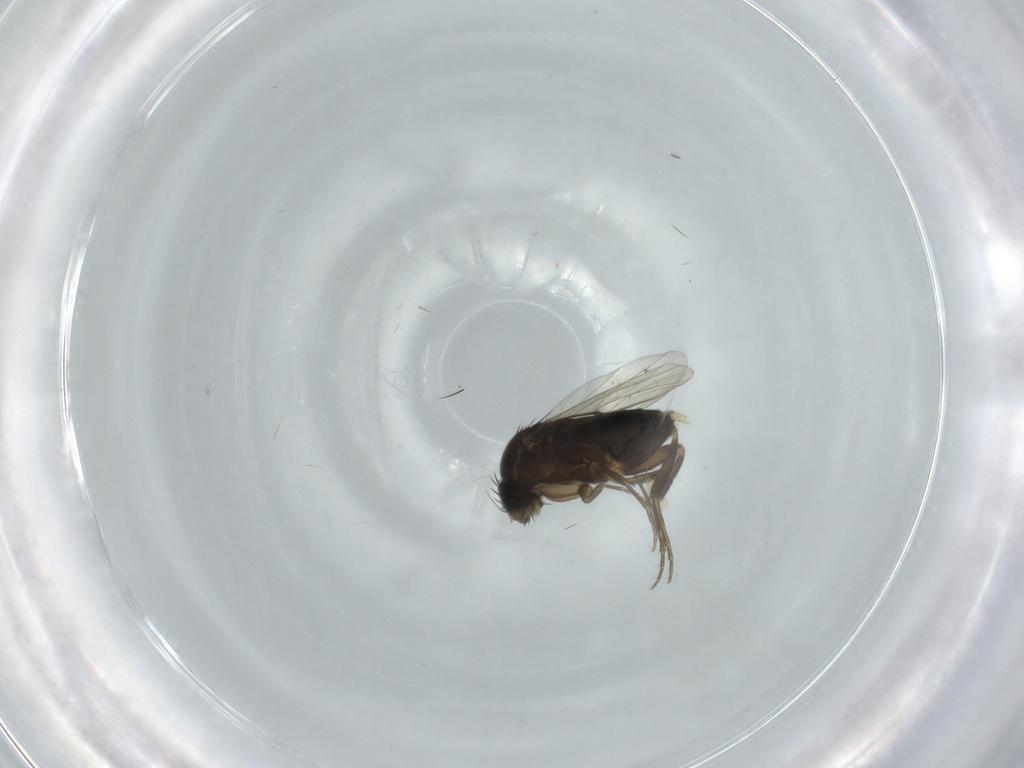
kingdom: Animalia
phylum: Arthropoda
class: Insecta
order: Diptera
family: Phoridae
